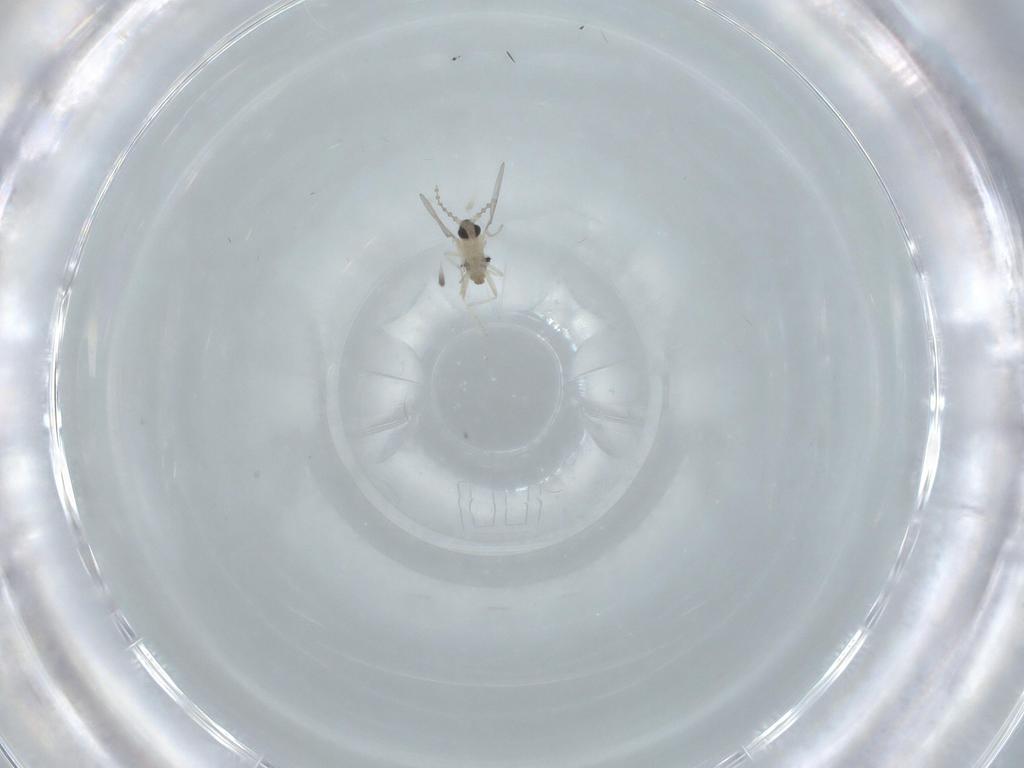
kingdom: Animalia
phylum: Arthropoda
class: Insecta
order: Diptera
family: Cecidomyiidae
